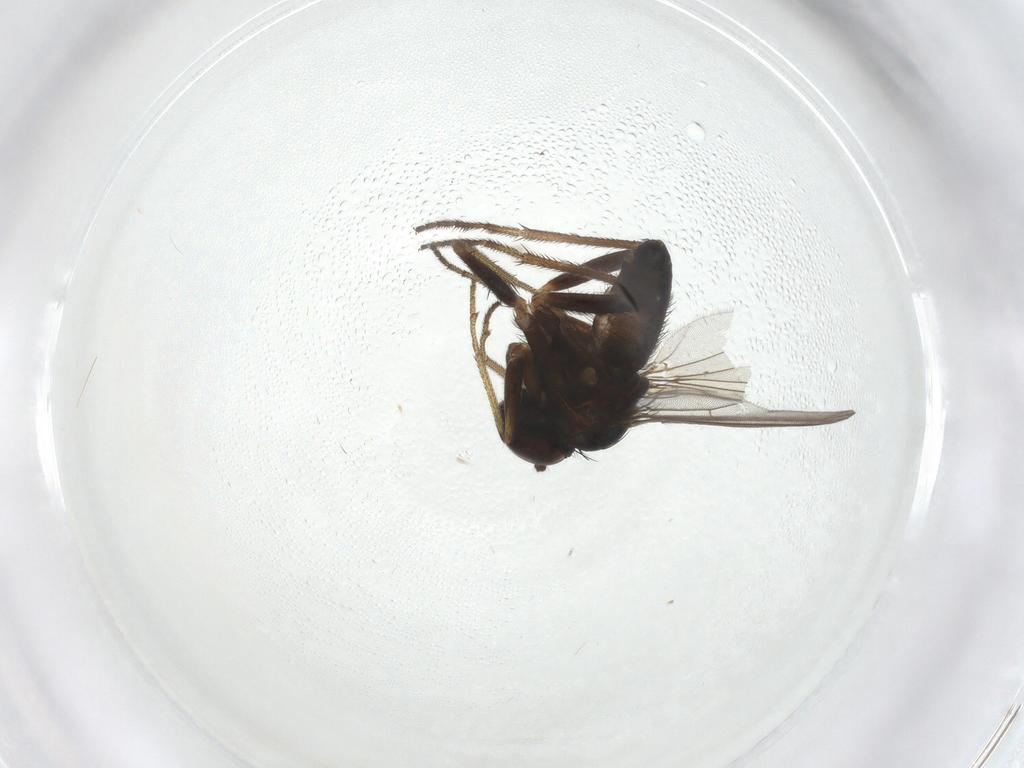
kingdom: Animalia
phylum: Arthropoda
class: Insecta
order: Diptera
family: Dolichopodidae
